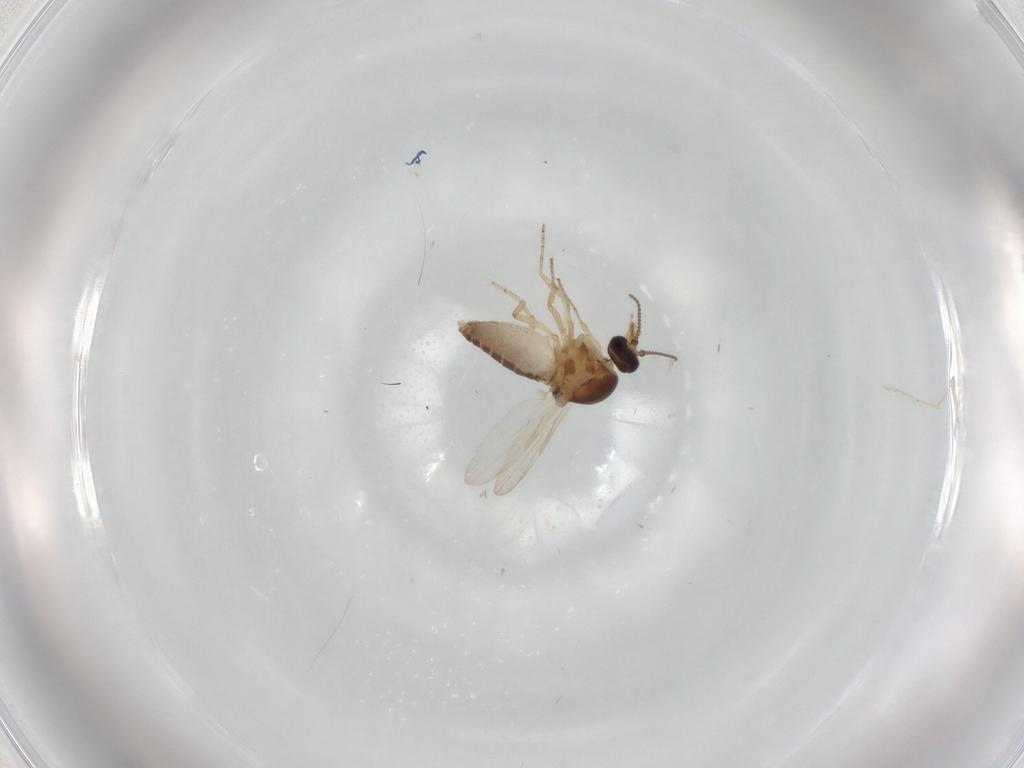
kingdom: Animalia
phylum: Arthropoda
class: Insecta
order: Diptera
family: Ceratopogonidae
